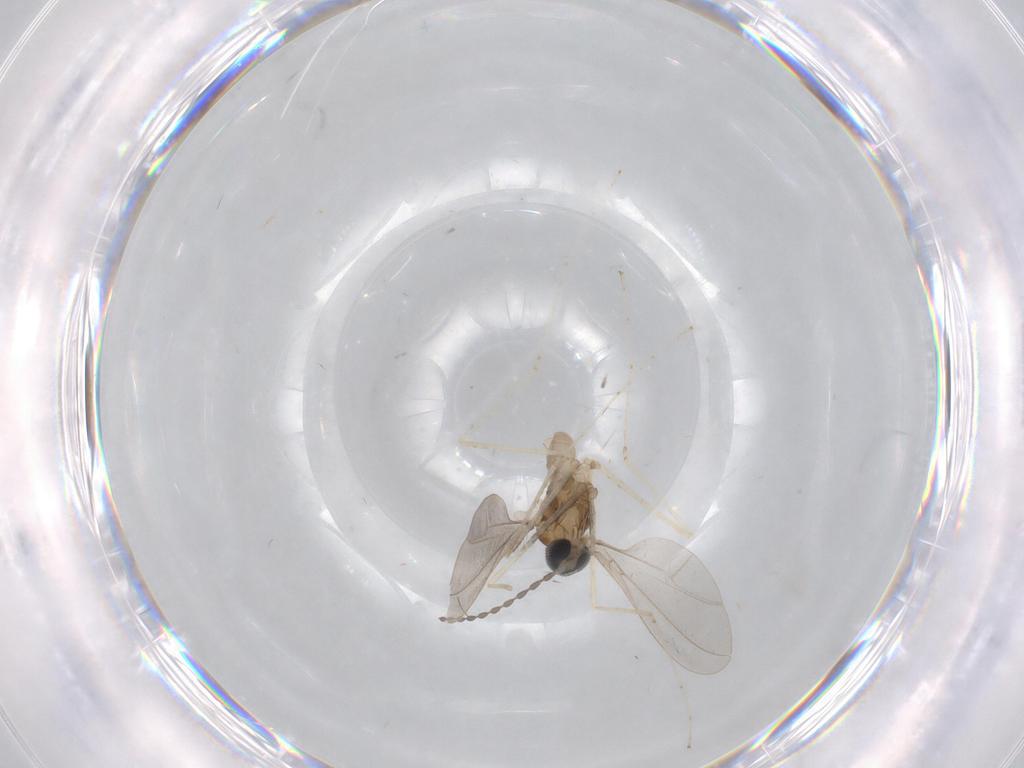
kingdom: Animalia
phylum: Arthropoda
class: Insecta
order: Diptera
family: Cecidomyiidae
